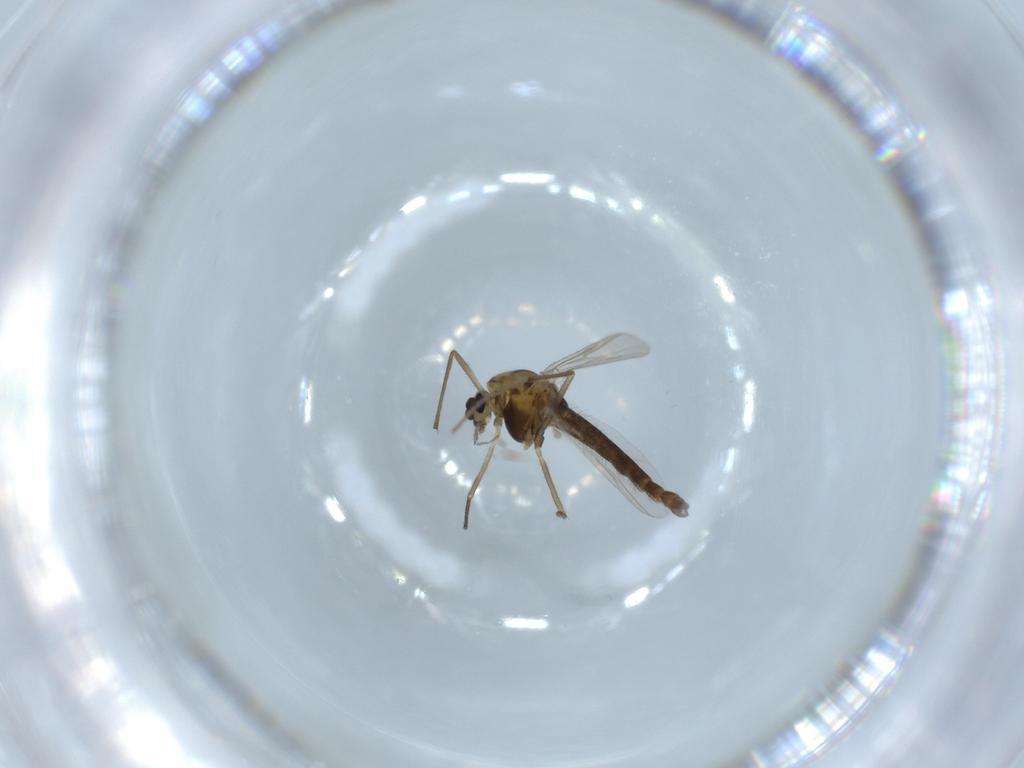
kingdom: Animalia
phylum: Arthropoda
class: Insecta
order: Diptera
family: Chironomidae
